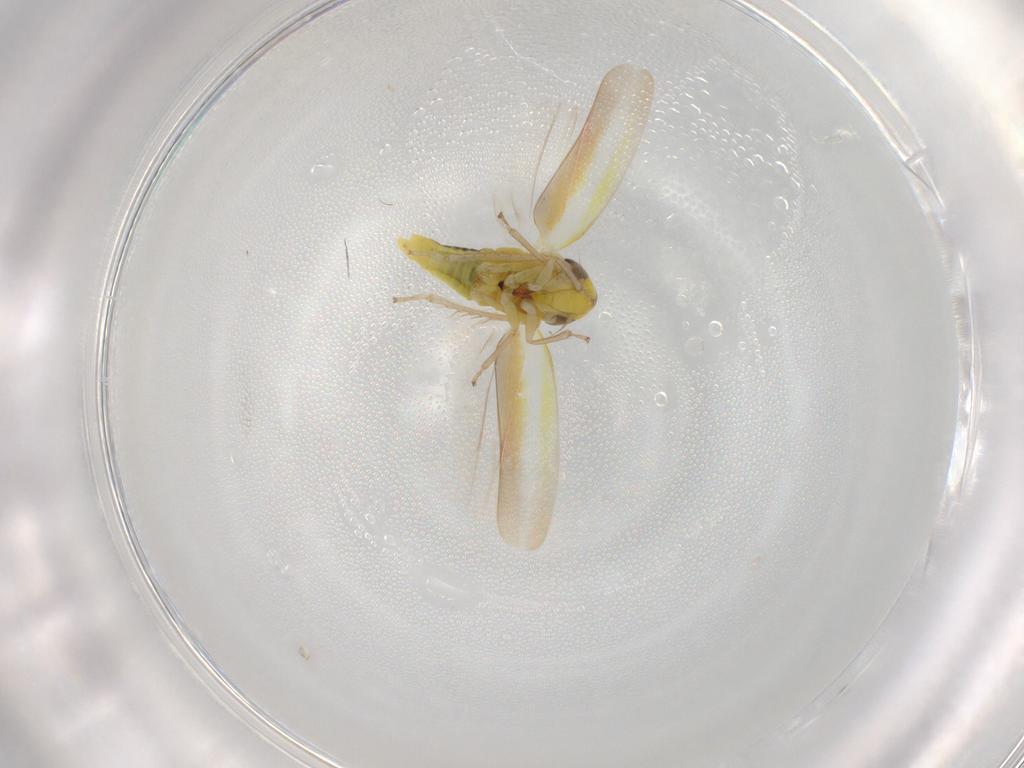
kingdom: Animalia
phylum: Arthropoda
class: Insecta
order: Hemiptera
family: Cicadellidae
